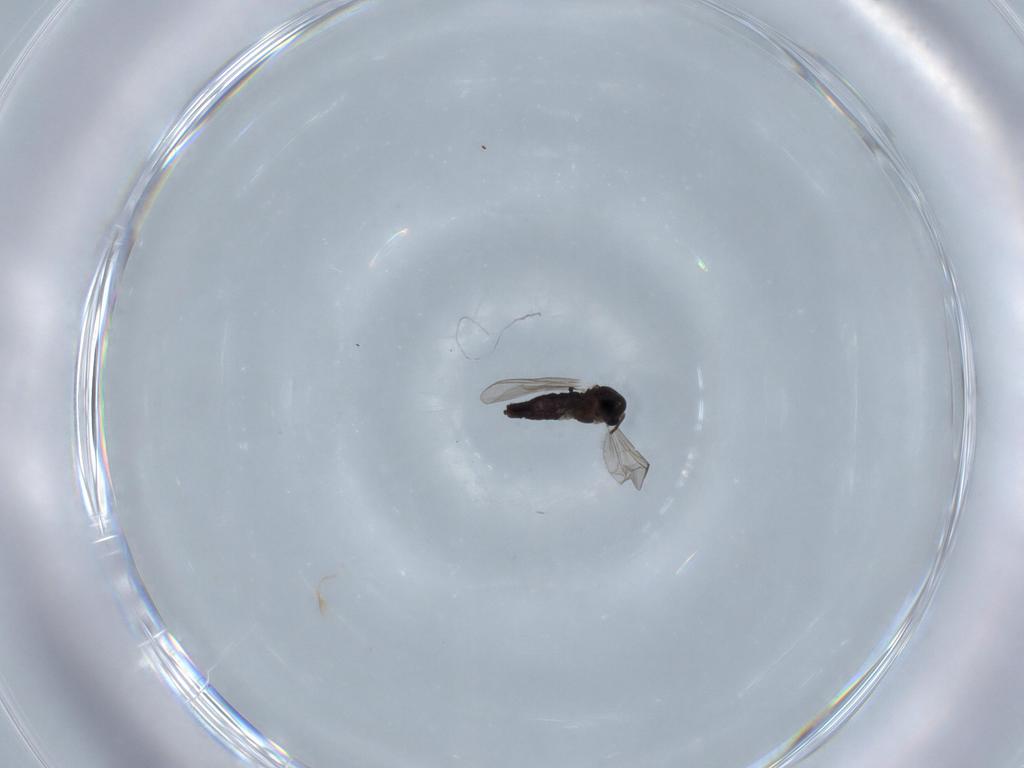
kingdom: Animalia
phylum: Arthropoda
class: Insecta
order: Diptera
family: Chironomidae
